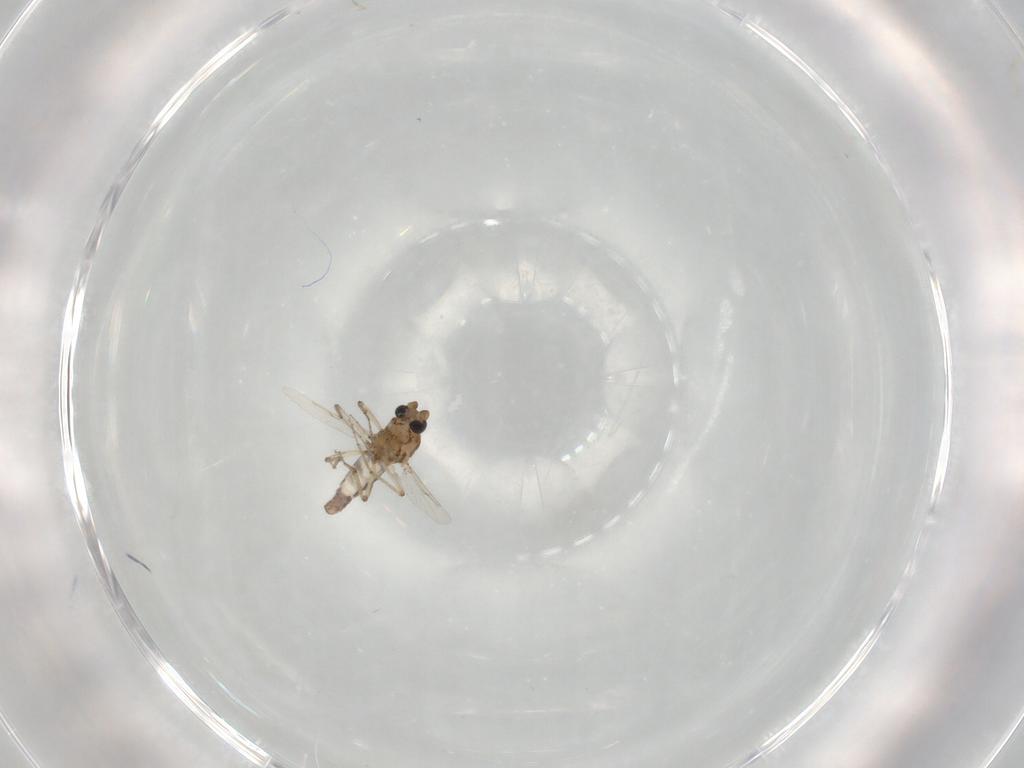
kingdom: Animalia
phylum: Arthropoda
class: Insecta
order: Diptera
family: Ceratopogonidae
